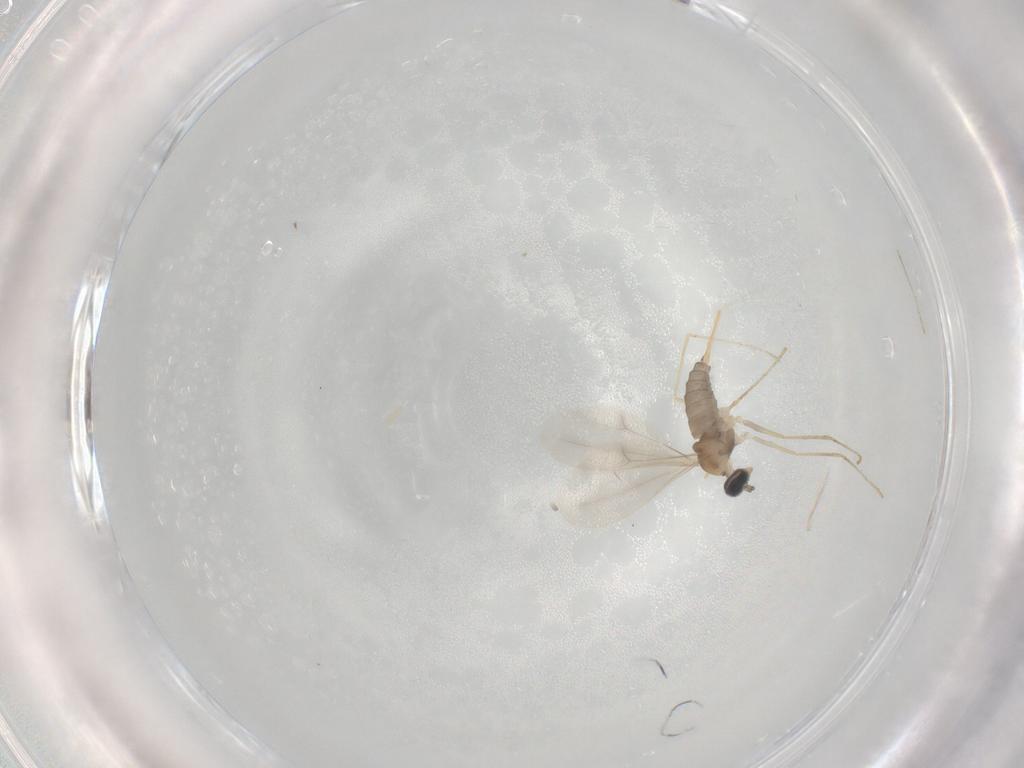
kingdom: Animalia
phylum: Arthropoda
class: Insecta
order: Diptera
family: Cecidomyiidae
